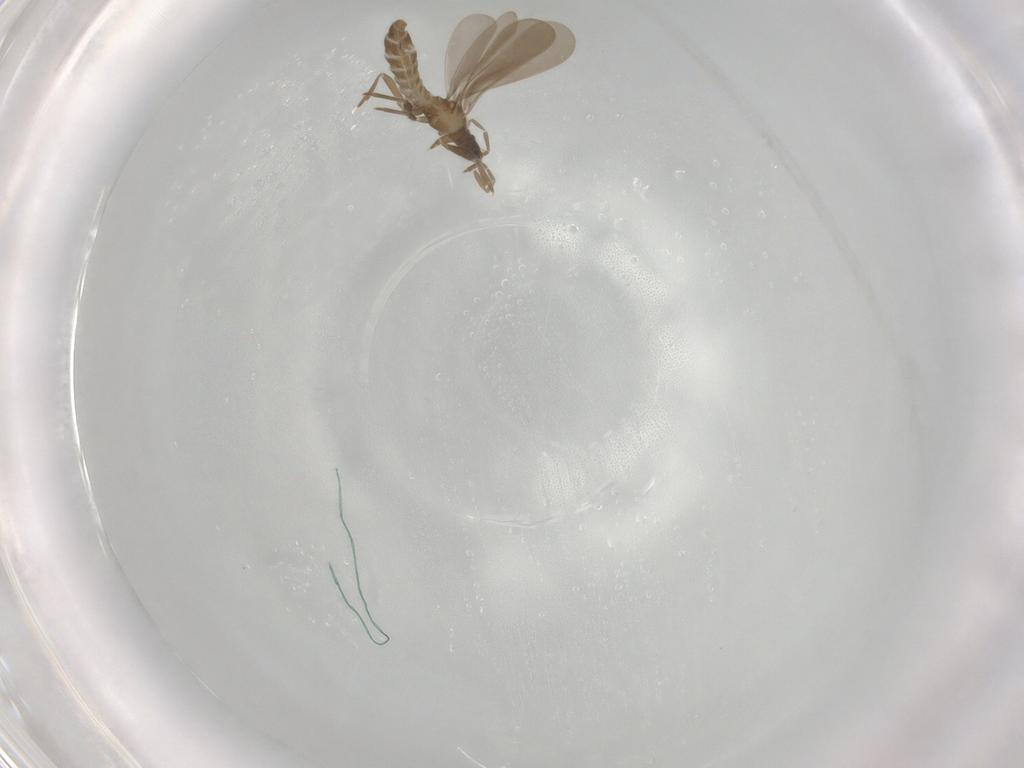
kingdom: Animalia
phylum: Arthropoda
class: Insecta
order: Hemiptera
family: Enicocephalidae
